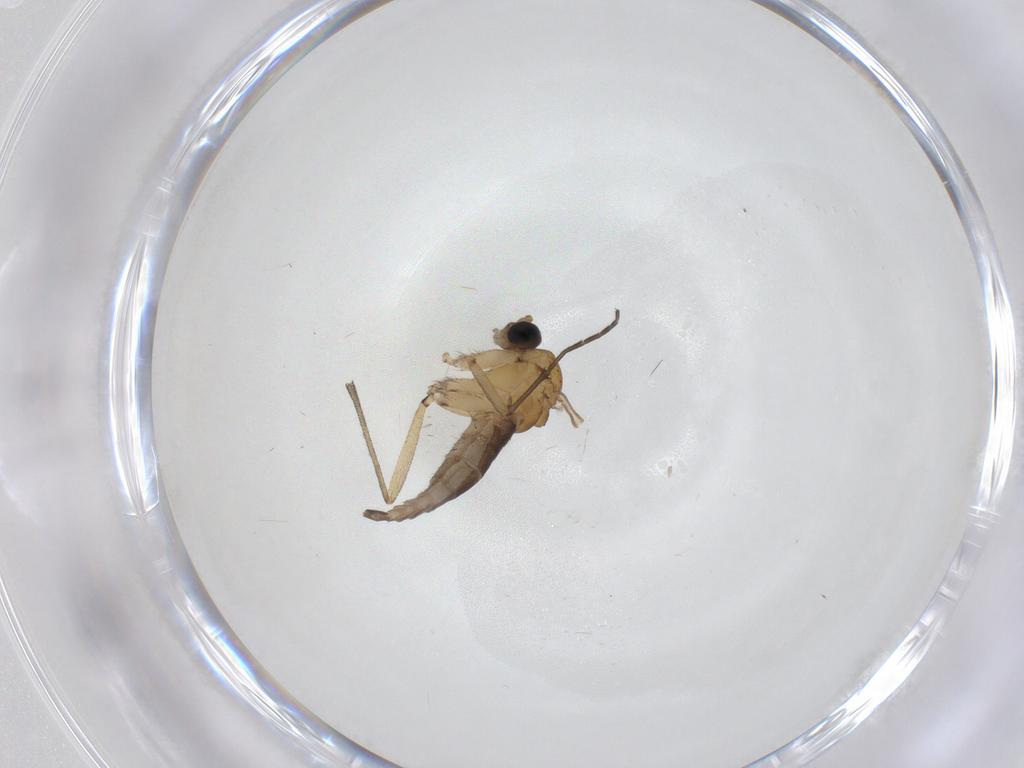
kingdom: Animalia
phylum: Arthropoda
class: Insecta
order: Diptera
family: Sciaridae
